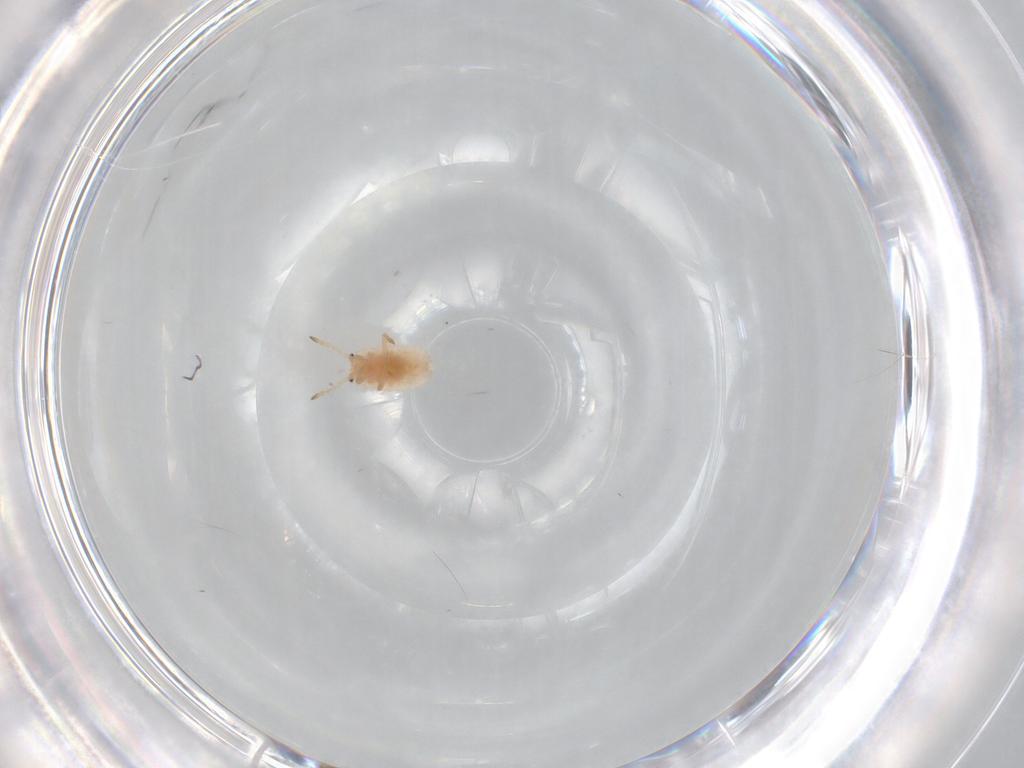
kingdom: Animalia
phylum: Arthropoda
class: Insecta
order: Hemiptera
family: Coccoidea_incertae_sedis
